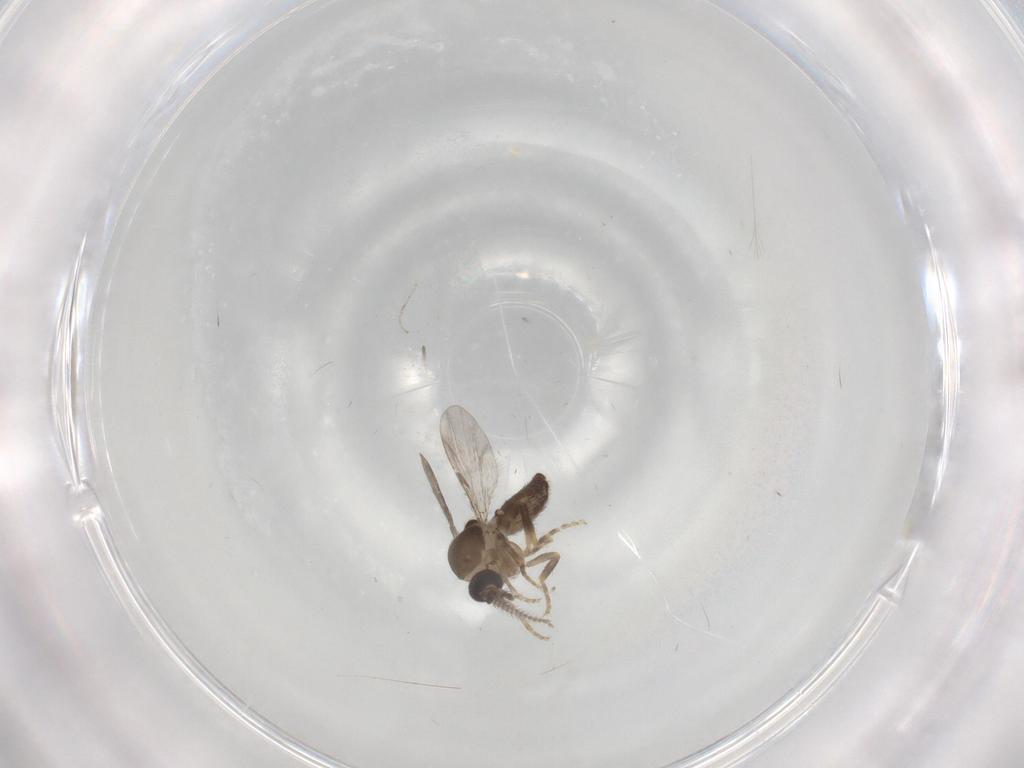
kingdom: Animalia
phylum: Arthropoda
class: Insecta
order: Diptera
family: Ceratopogonidae
